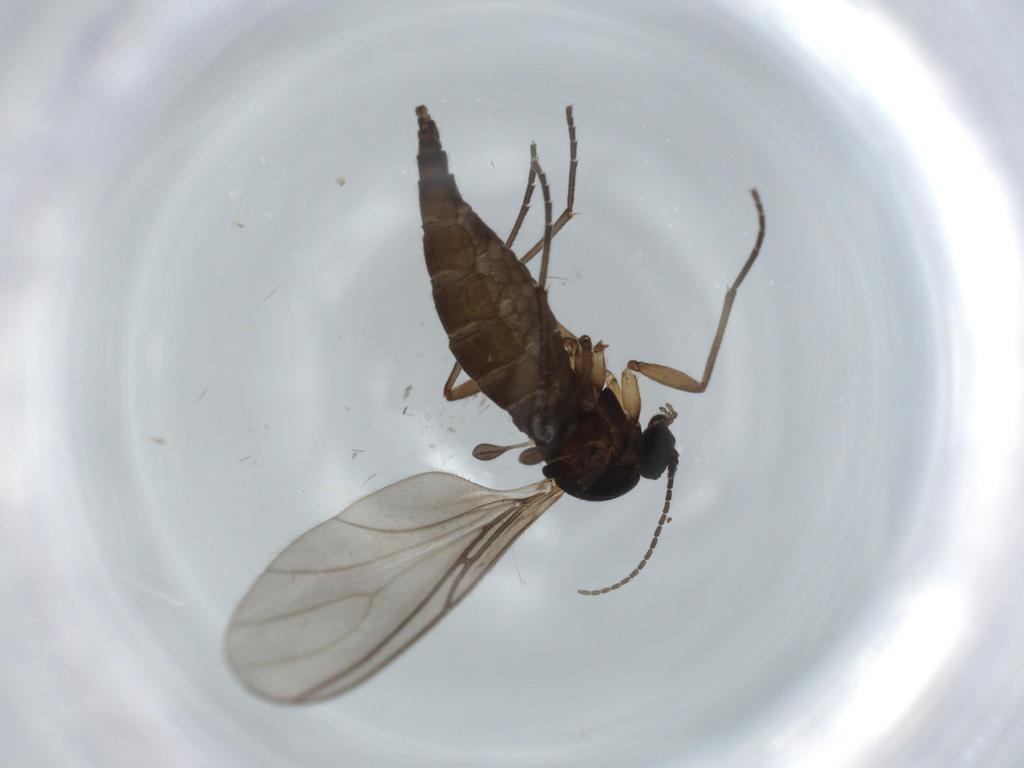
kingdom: Animalia
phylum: Arthropoda
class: Insecta
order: Diptera
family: Sciaridae
